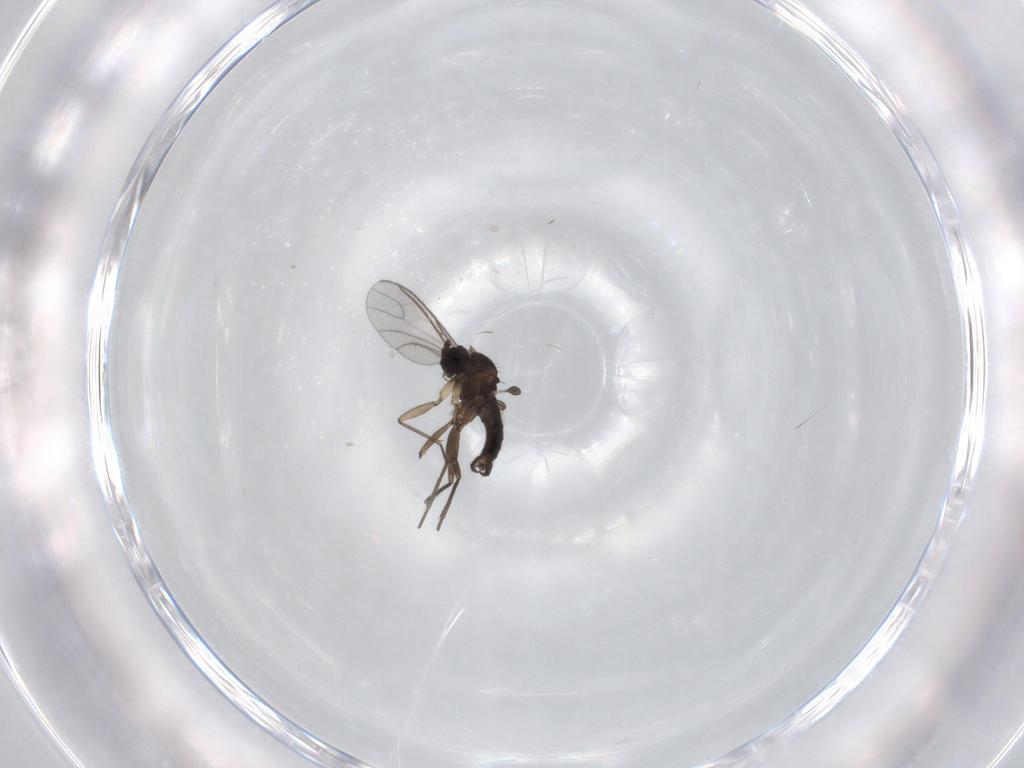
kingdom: Animalia
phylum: Arthropoda
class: Insecta
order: Diptera
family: Sciaridae
